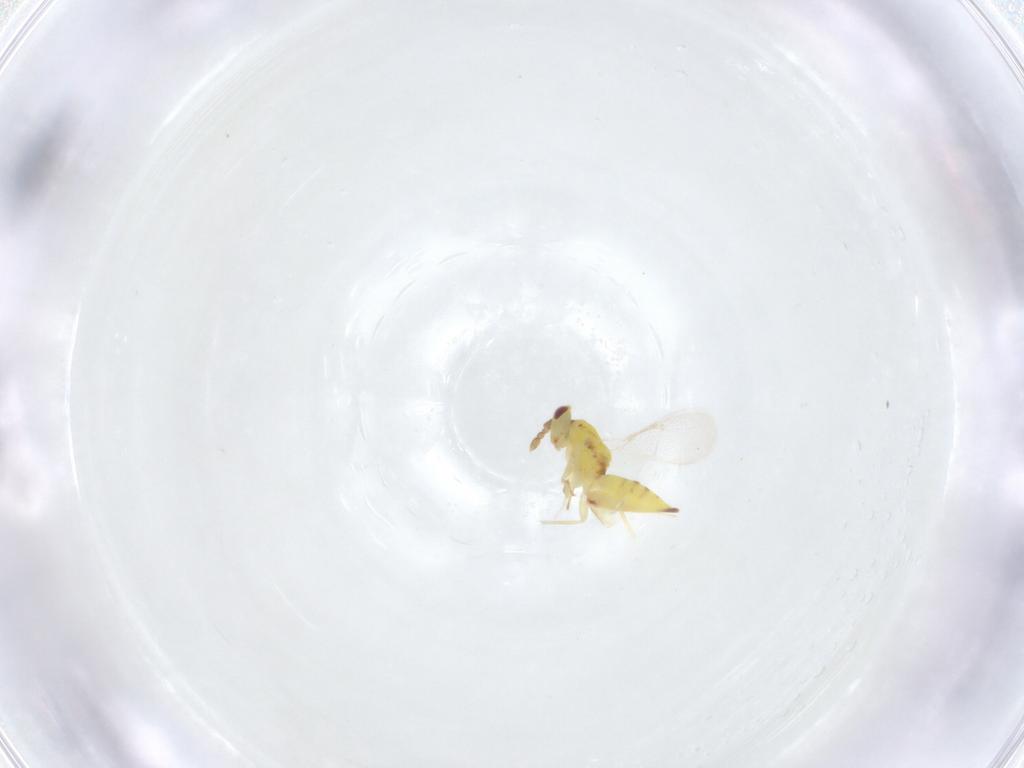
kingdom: Animalia
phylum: Arthropoda
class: Insecta
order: Hymenoptera
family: Eulophidae
